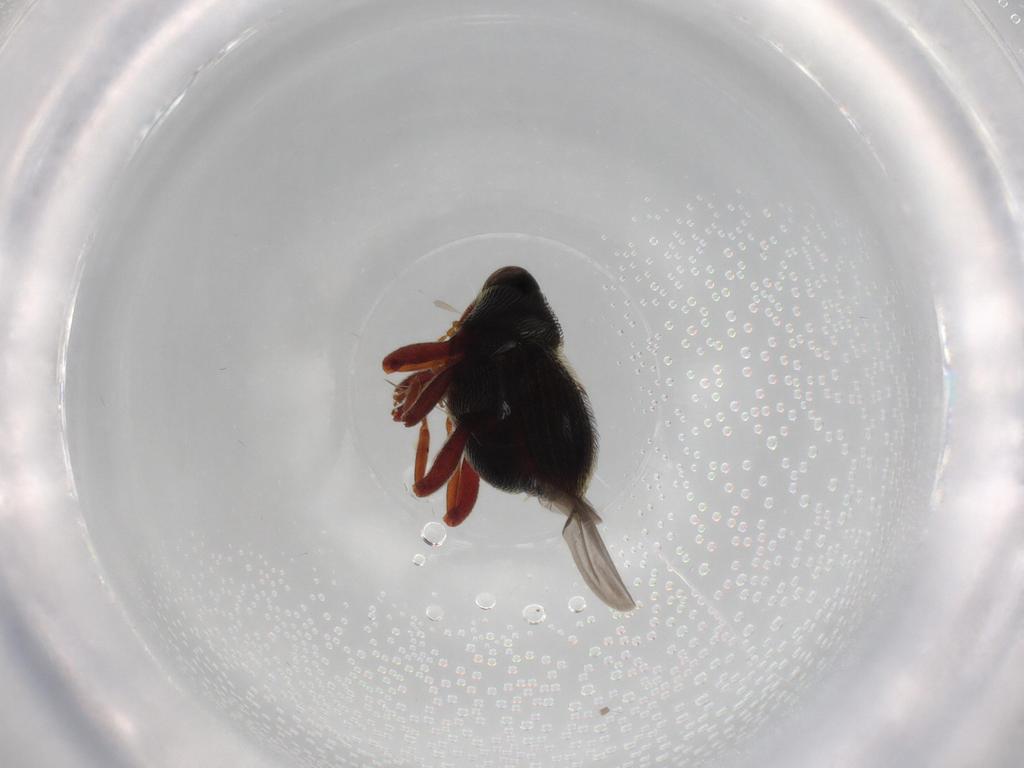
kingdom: Animalia
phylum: Arthropoda
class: Insecta
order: Coleoptera
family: Curculionidae
